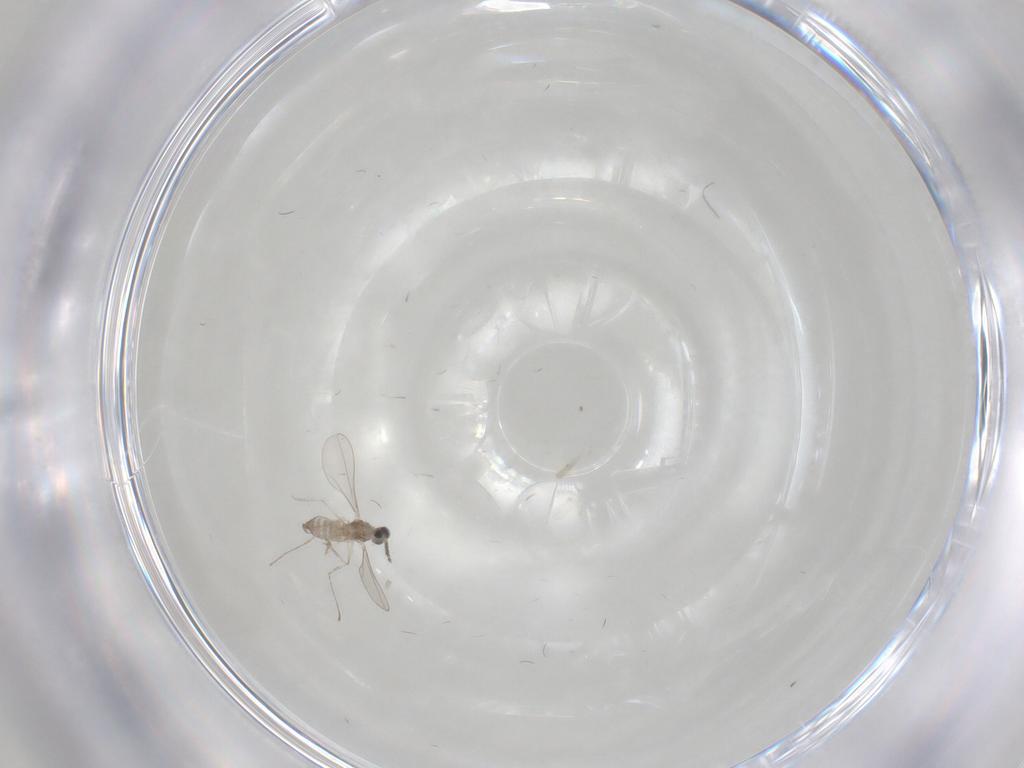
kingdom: Animalia
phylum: Arthropoda
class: Insecta
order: Diptera
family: Cecidomyiidae
